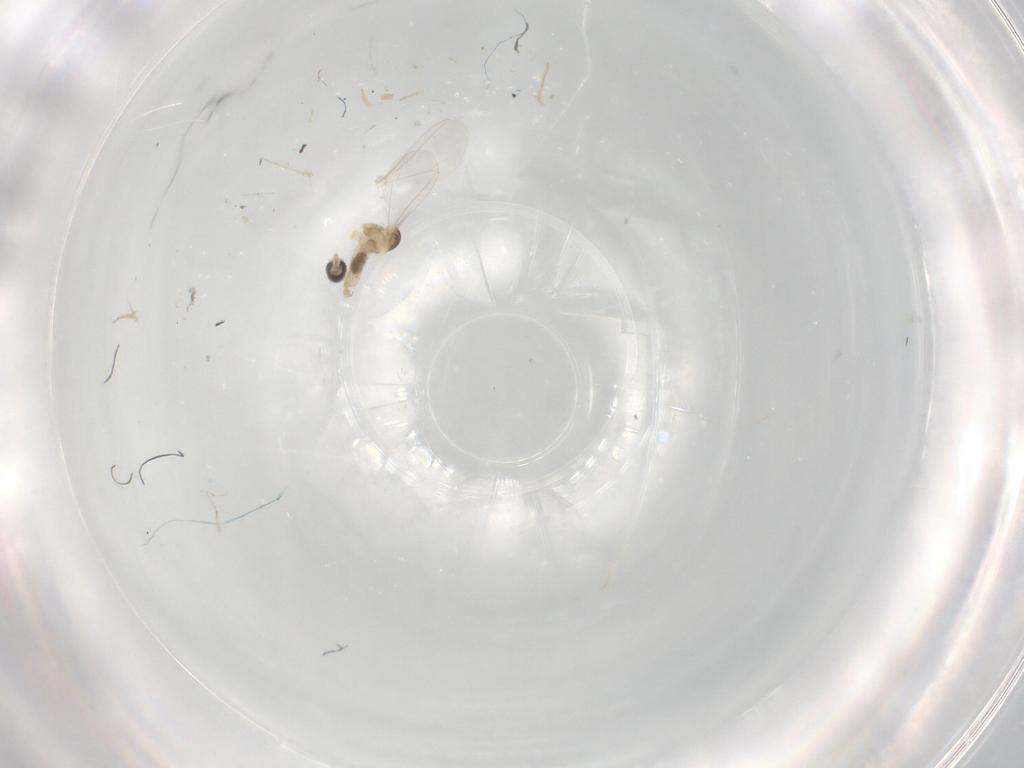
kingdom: Animalia
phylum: Arthropoda
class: Insecta
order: Diptera
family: Cecidomyiidae
